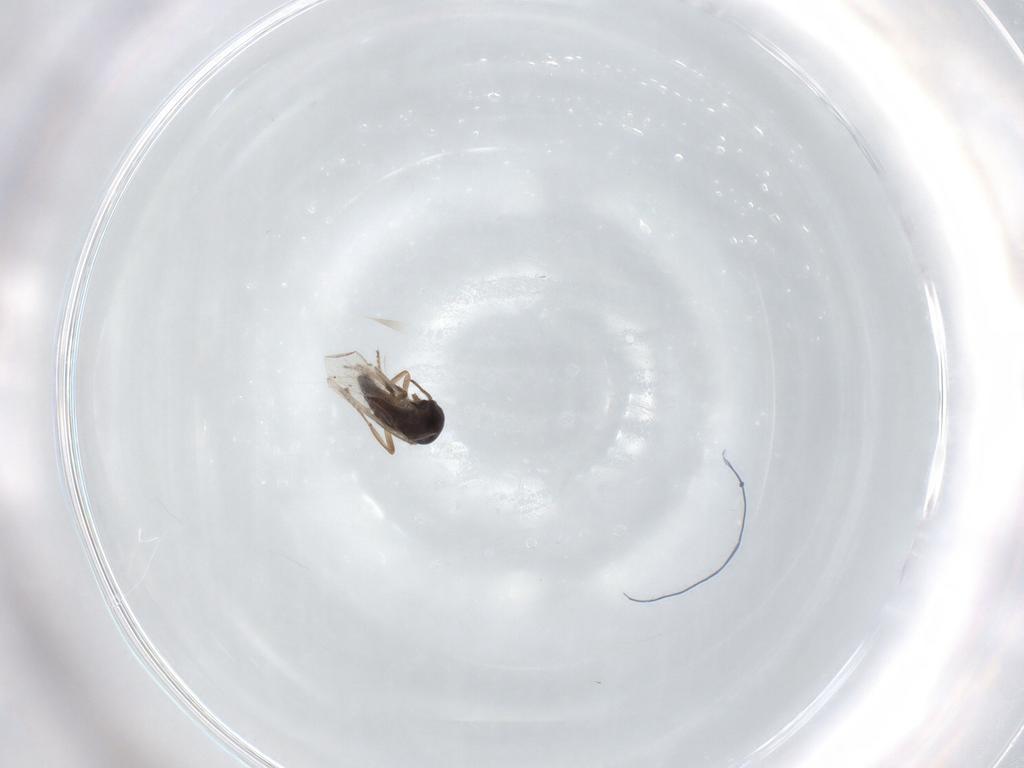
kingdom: Animalia
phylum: Arthropoda
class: Insecta
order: Diptera
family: Ceratopogonidae
